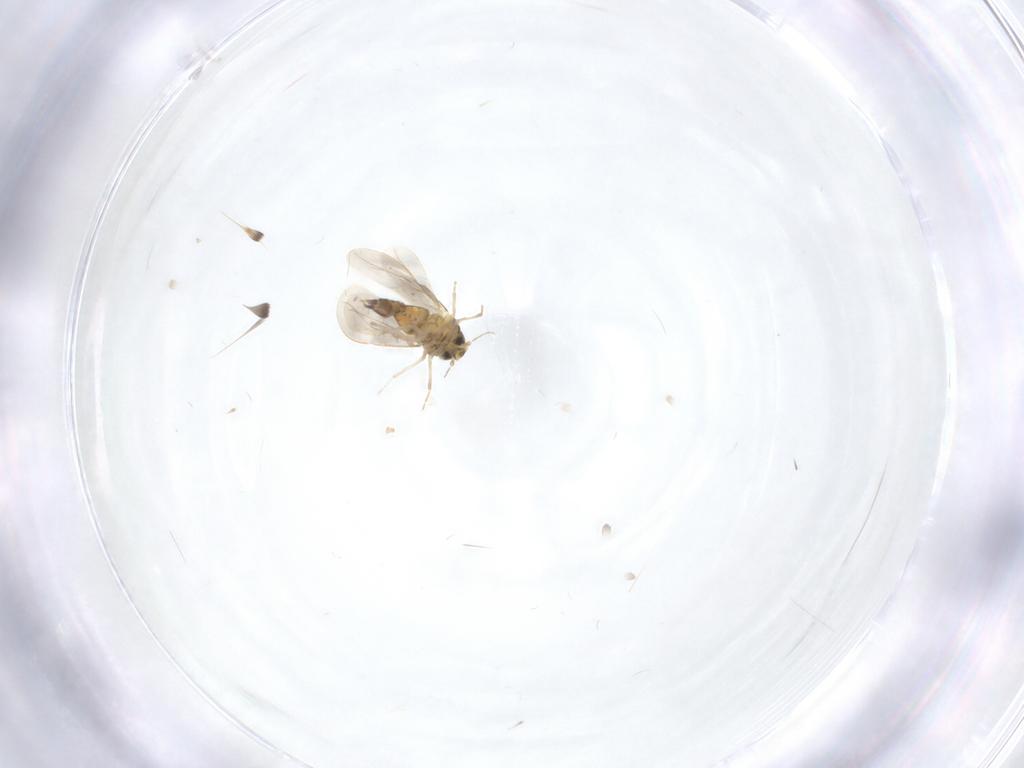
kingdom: Animalia
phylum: Arthropoda
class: Insecta
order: Hemiptera
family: Aleyrodidae
